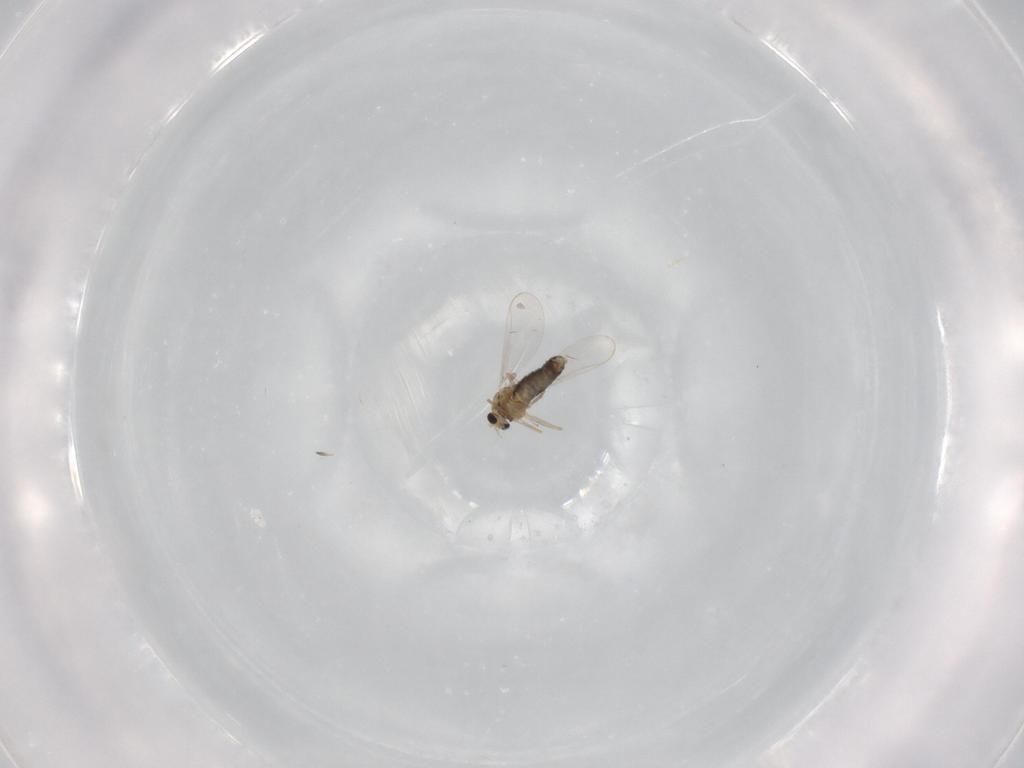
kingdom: Animalia
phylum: Arthropoda
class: Insecta
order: Diptera
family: Chironomidae
